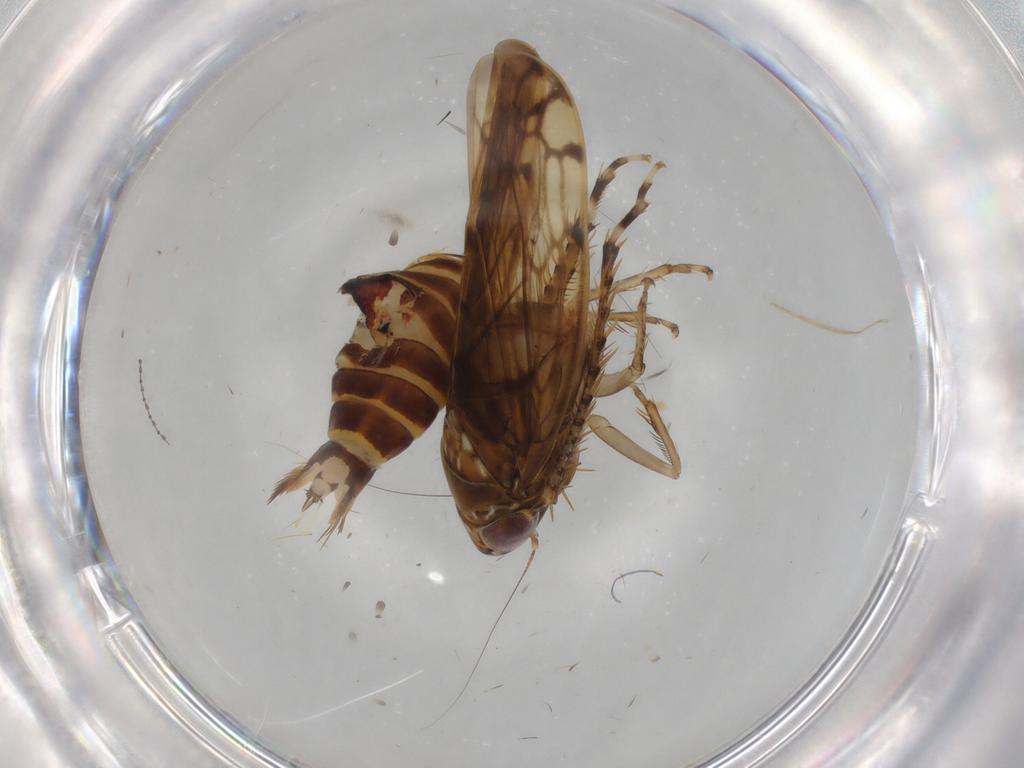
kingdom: Animalia
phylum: Arthropoda
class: Insecta
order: Hemiptera
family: Cicadellidae
